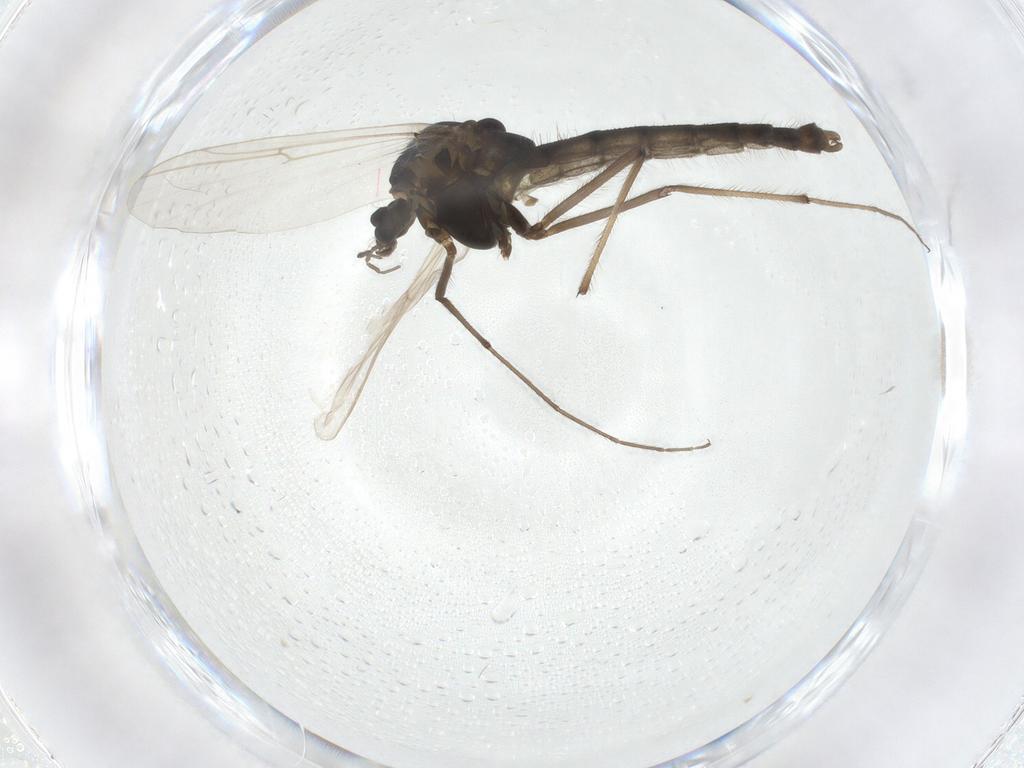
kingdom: Animalia
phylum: Arthropoda
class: Insecta
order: Diptera
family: Chironomidae
